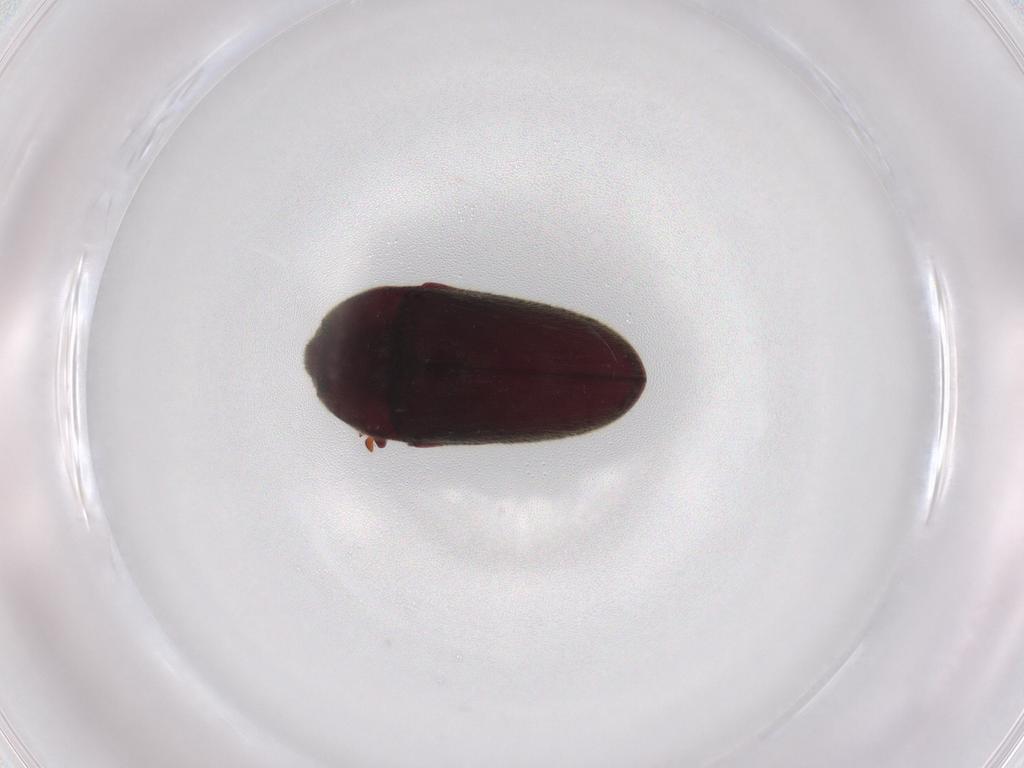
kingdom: Animalia
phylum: Arthropoda
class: Insecta
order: Coleoptera
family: Throscidae
